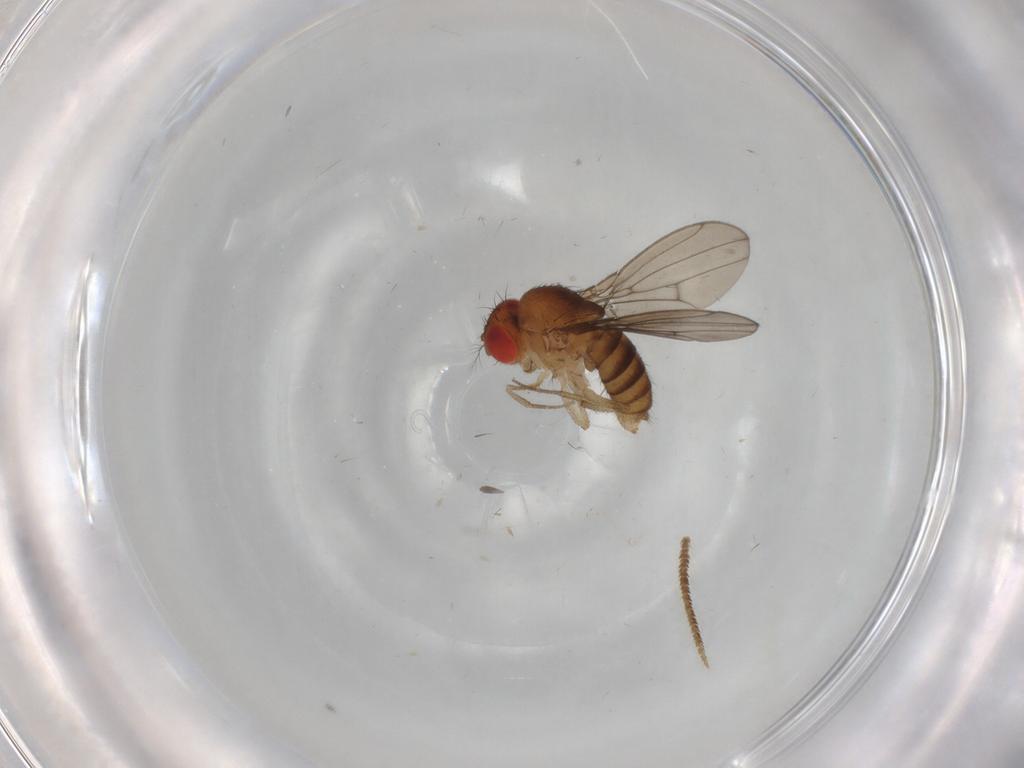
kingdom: Animalia
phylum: Arthropoda
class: Insecta
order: Diptera
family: Drosophilidae
